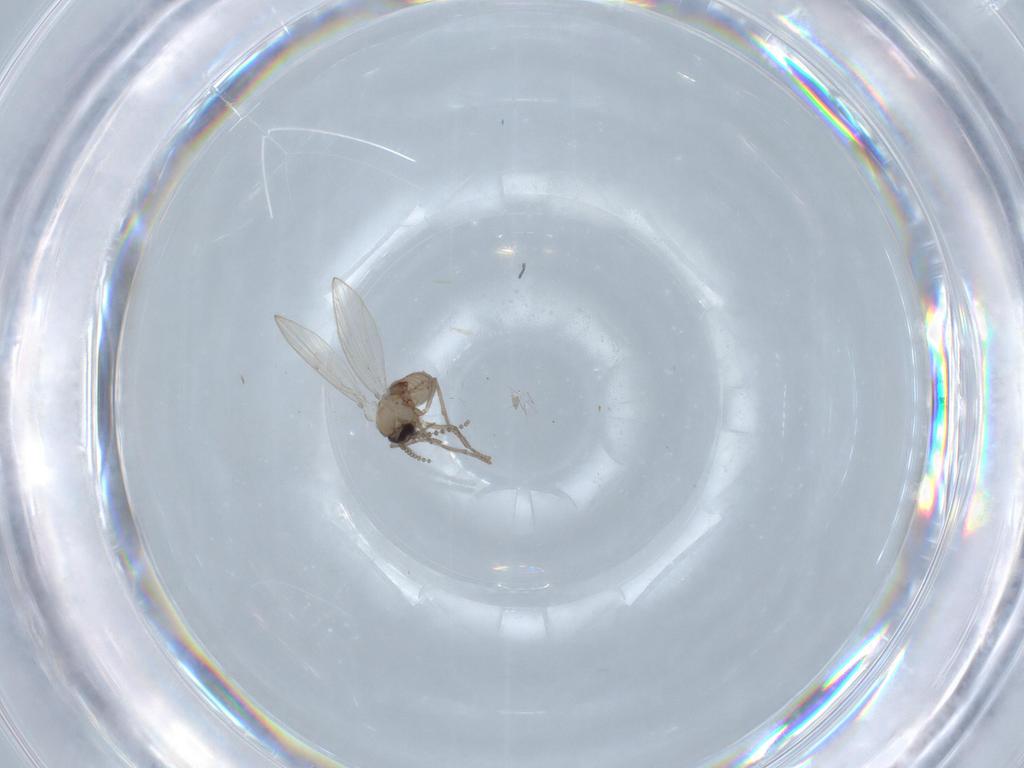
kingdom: Animalia
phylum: Arthropoda
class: Insecta
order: Diptera
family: Psychodidae
